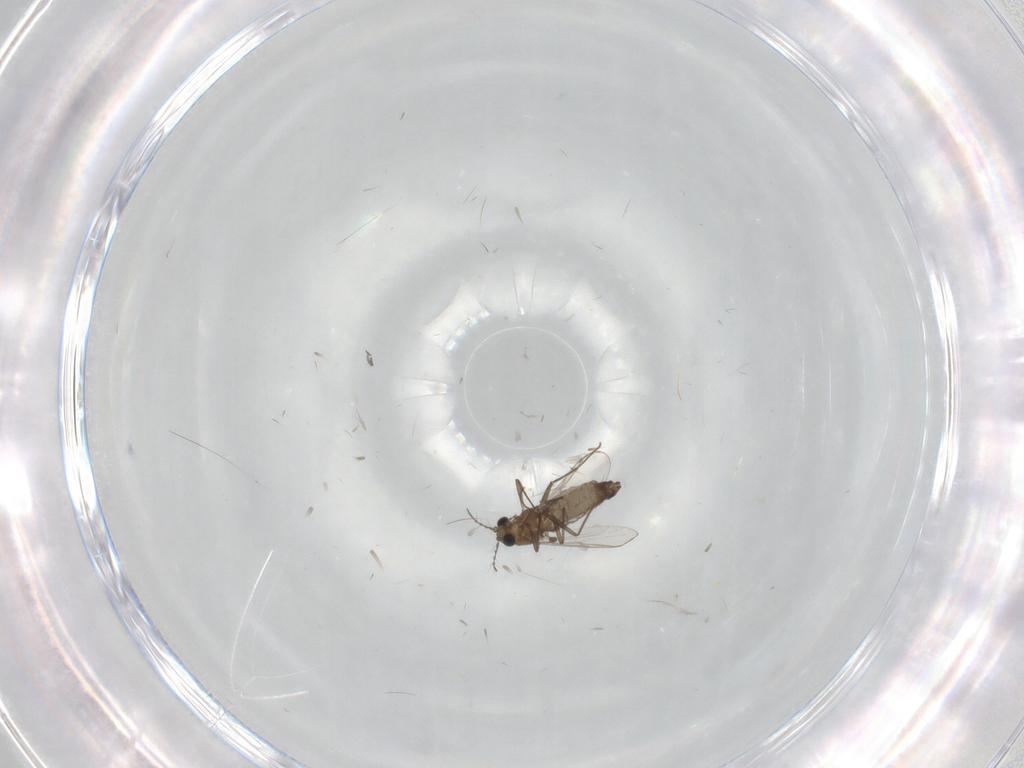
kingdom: Animalia
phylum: Arthropoda
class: Insecta
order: Diptera
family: Chironomidae
